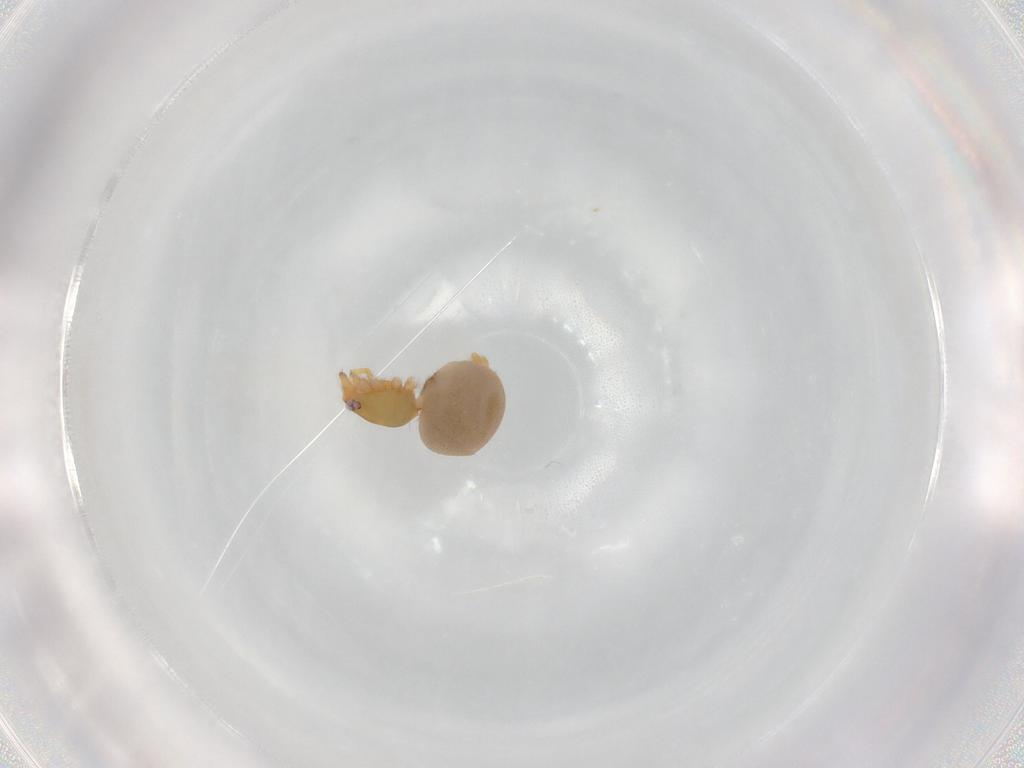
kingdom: Animalia
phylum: Arthropoda
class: Arachnida
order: Araneae
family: Oonopidae
